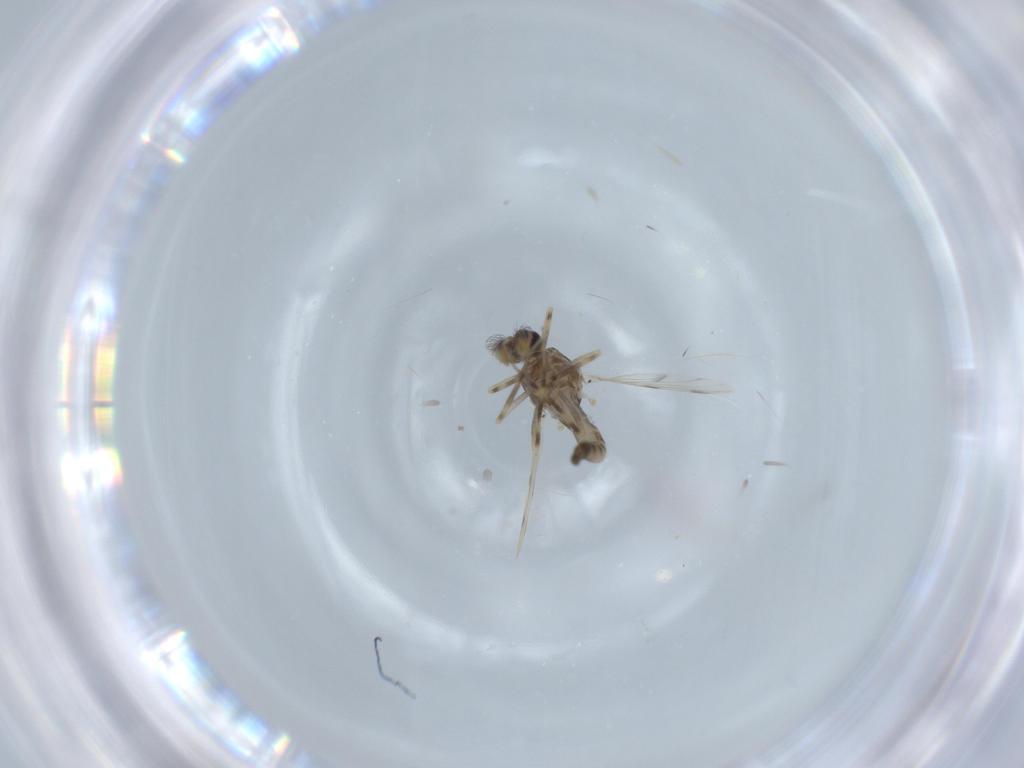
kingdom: Animalia
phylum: Arthropoda
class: Insecta
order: Diptera
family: Ceratopogonidae
